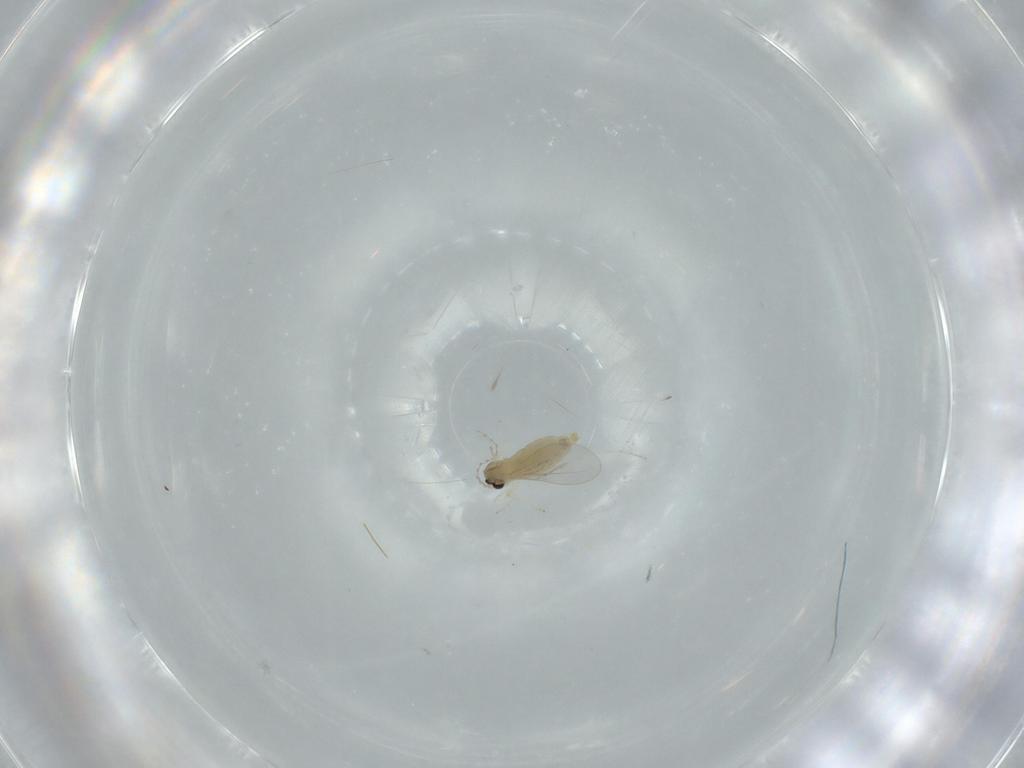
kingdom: Animalia
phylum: Arthropoda
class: Insecta
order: Diptera
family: Cecidomyiidae
